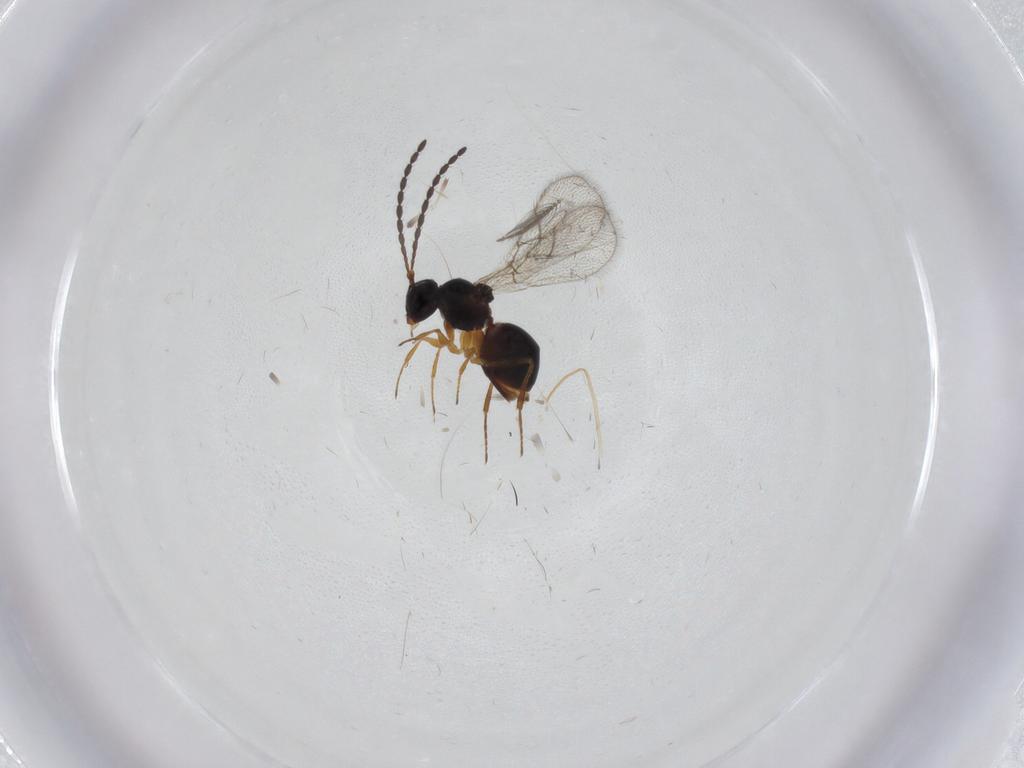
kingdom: Animalia
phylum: Arthropoda
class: Insecta
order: Hymenoptera
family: Figitidae
